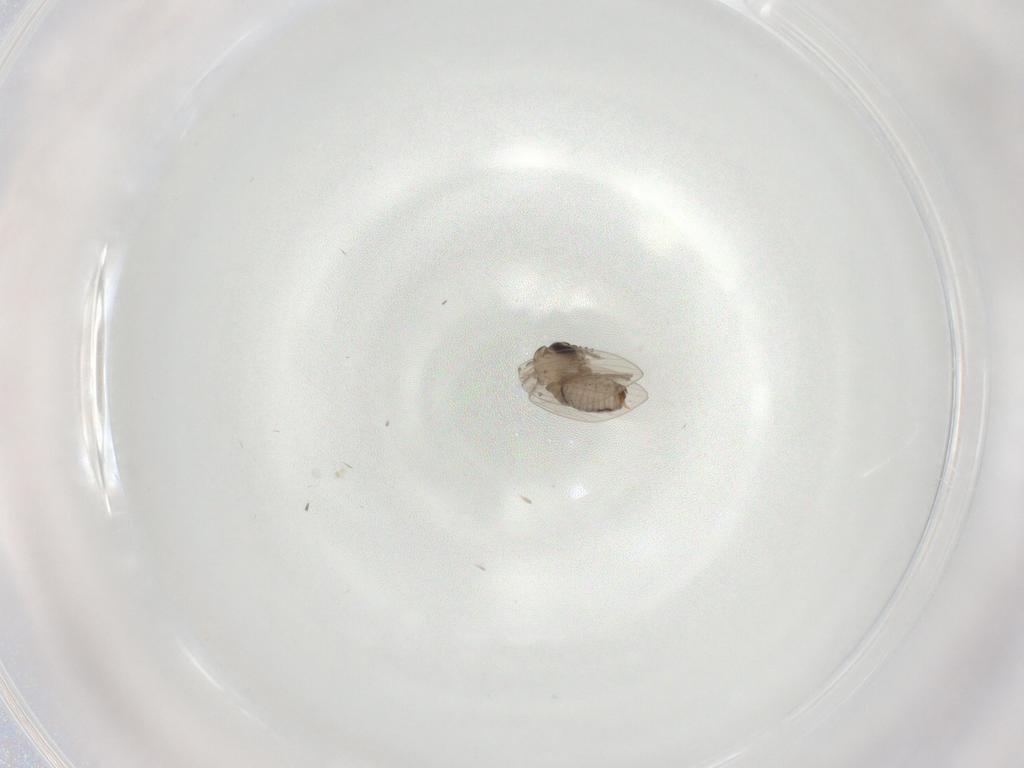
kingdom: Animalia
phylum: Arthropoda
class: Insecta
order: Diptera
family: Psychodidae
